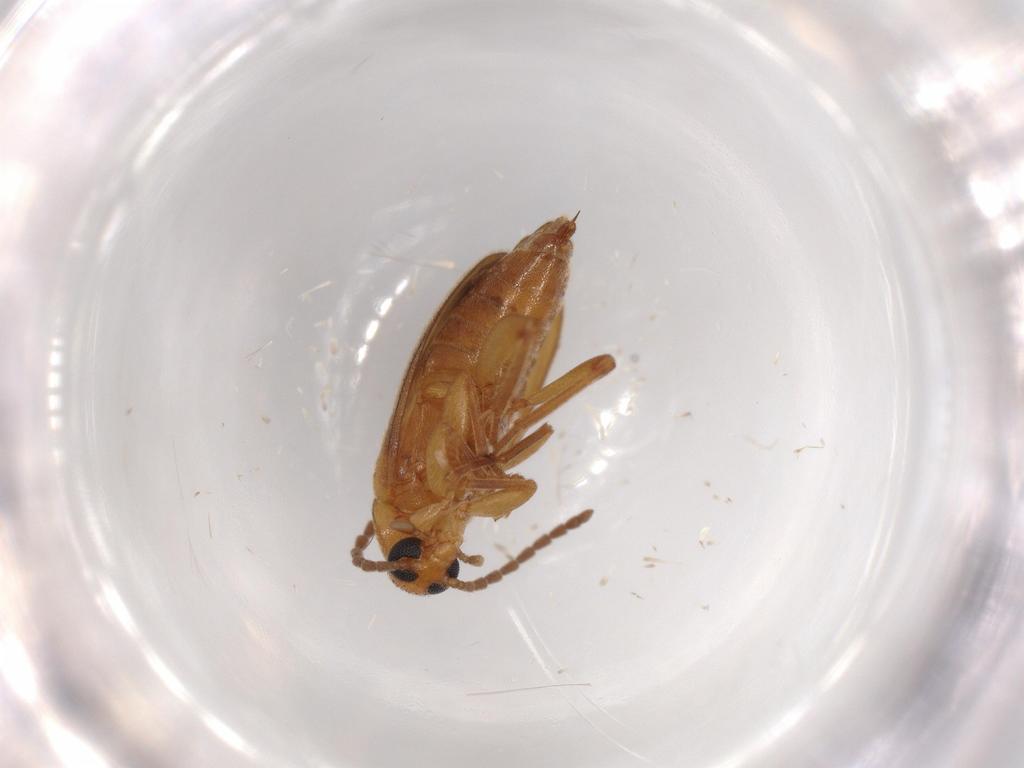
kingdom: Animalia
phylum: Arthropoda
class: Insecta
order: Coleoptera
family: Scraptiidae
